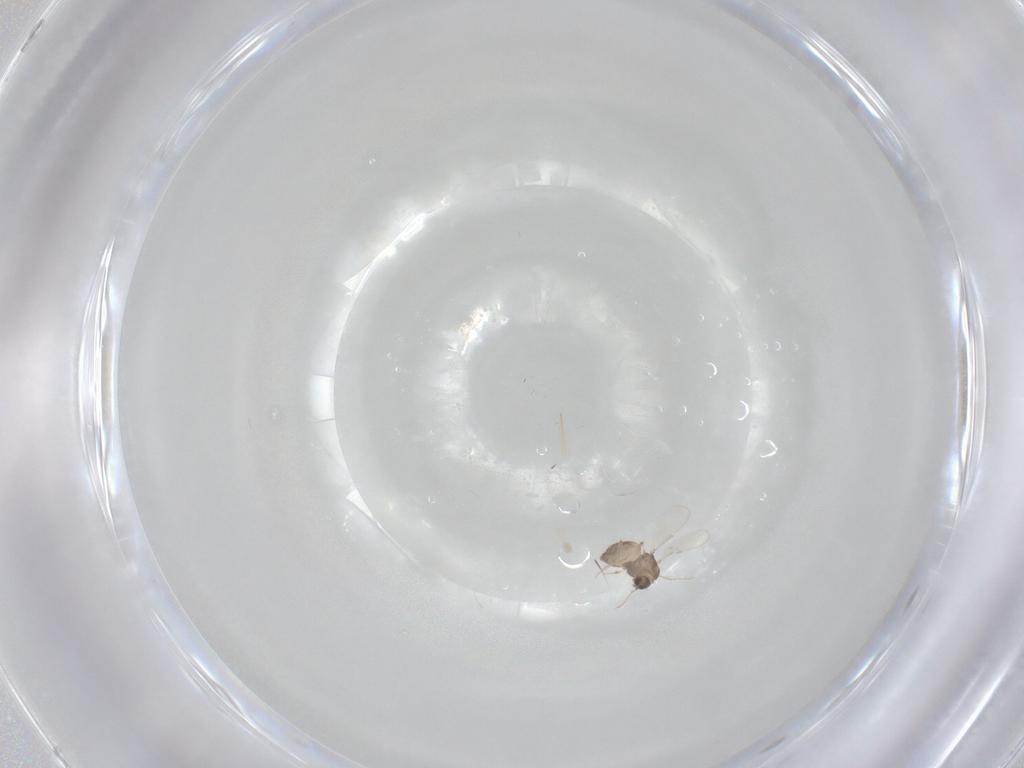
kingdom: Animalia
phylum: Arthropoda
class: Insecta
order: Diptera
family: Chironomidae
